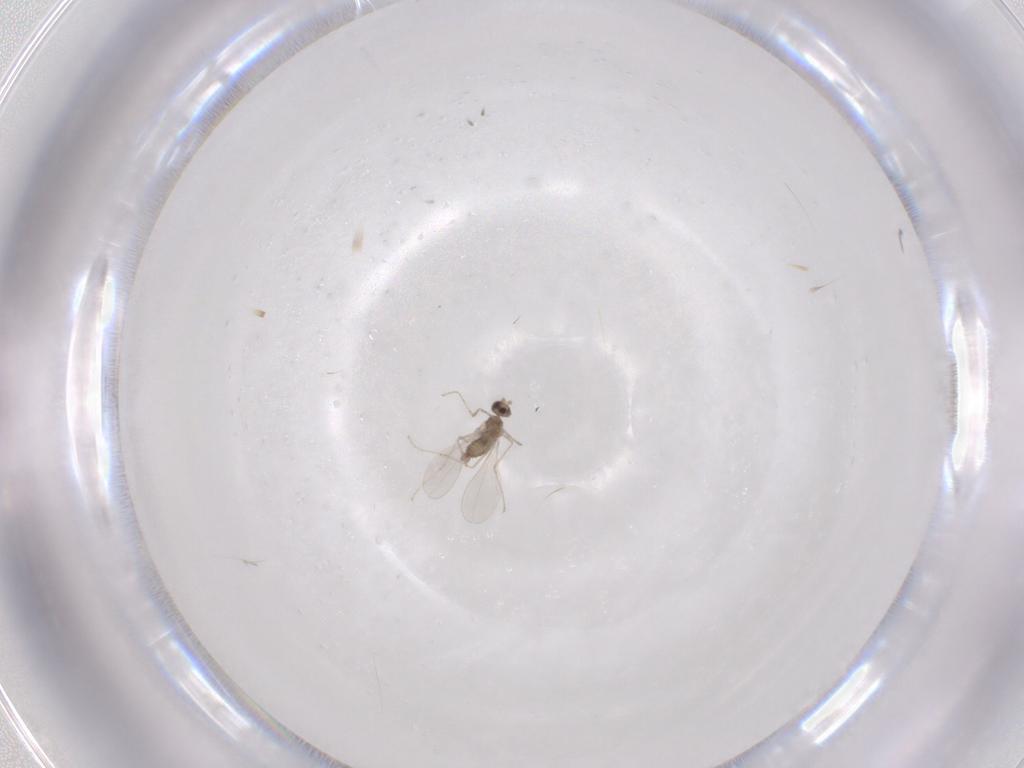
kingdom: Animalia
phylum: Arthropoda
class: Insecta
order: Diptera
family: Cecidomyiidae
